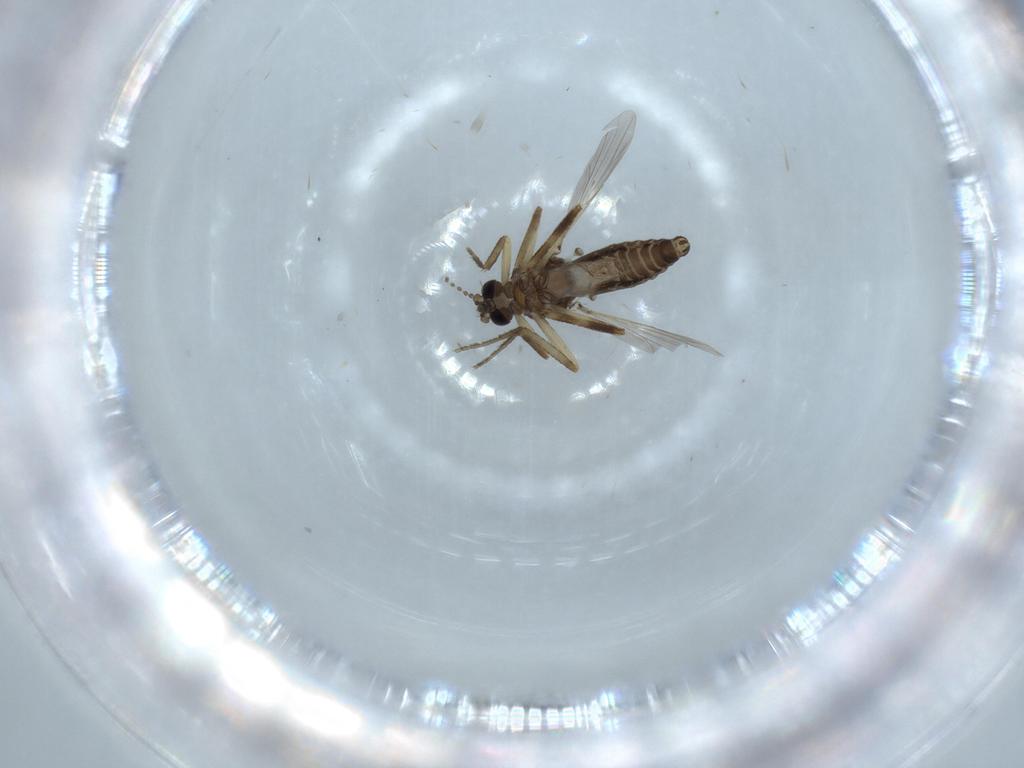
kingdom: Animalia
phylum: Arthropoda
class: Insecta
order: Diptera
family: Ceratopogonidae
